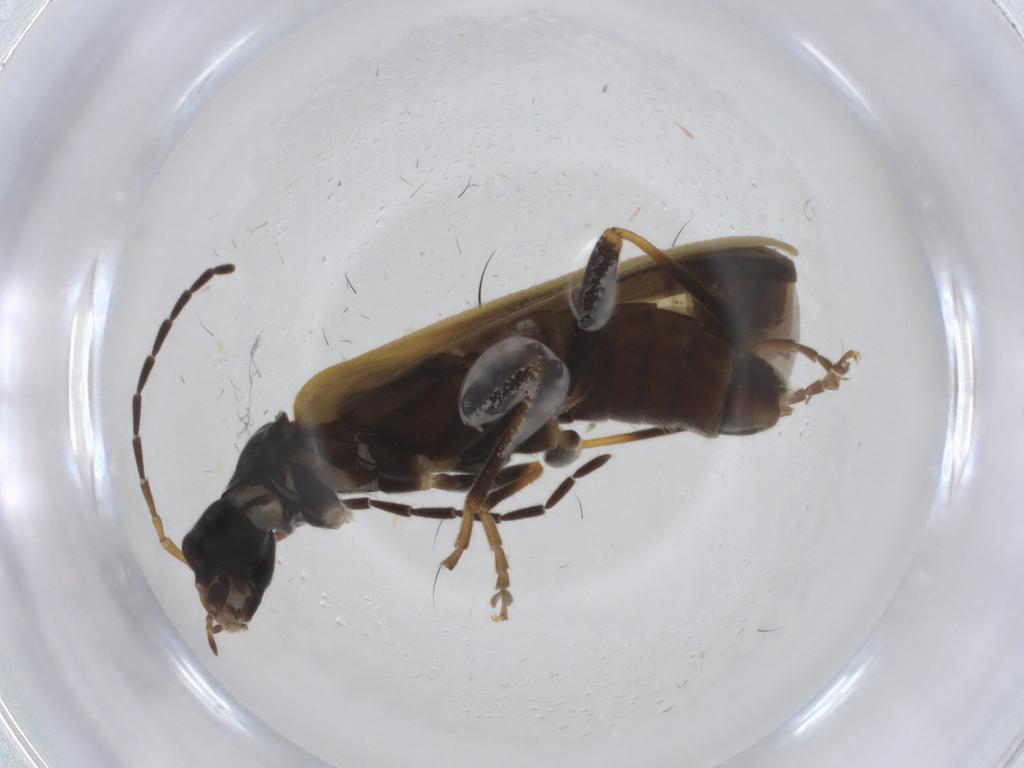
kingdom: Animalia
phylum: Arthropoda
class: Insecta
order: Coleoptera
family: Cantharidae
